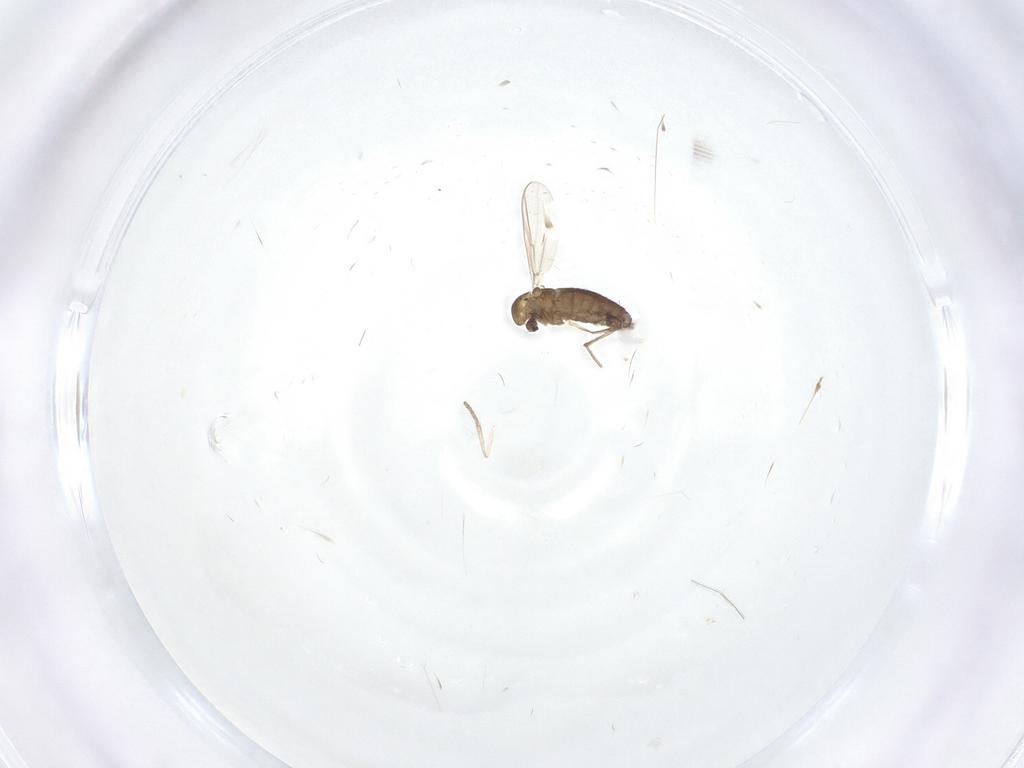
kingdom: Animalia
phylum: Arthropoda
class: Insecta
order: Diptera
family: Chironomidae
